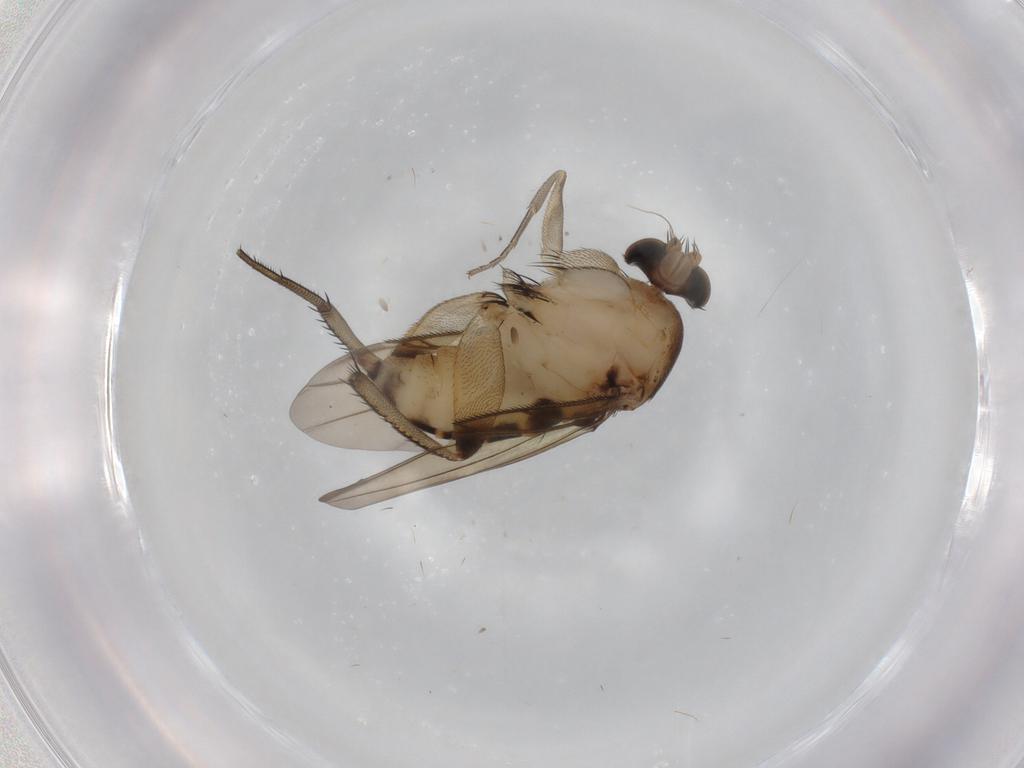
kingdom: Animalia
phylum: Arthropoda
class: Insecta
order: Diptera
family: Phoridae
